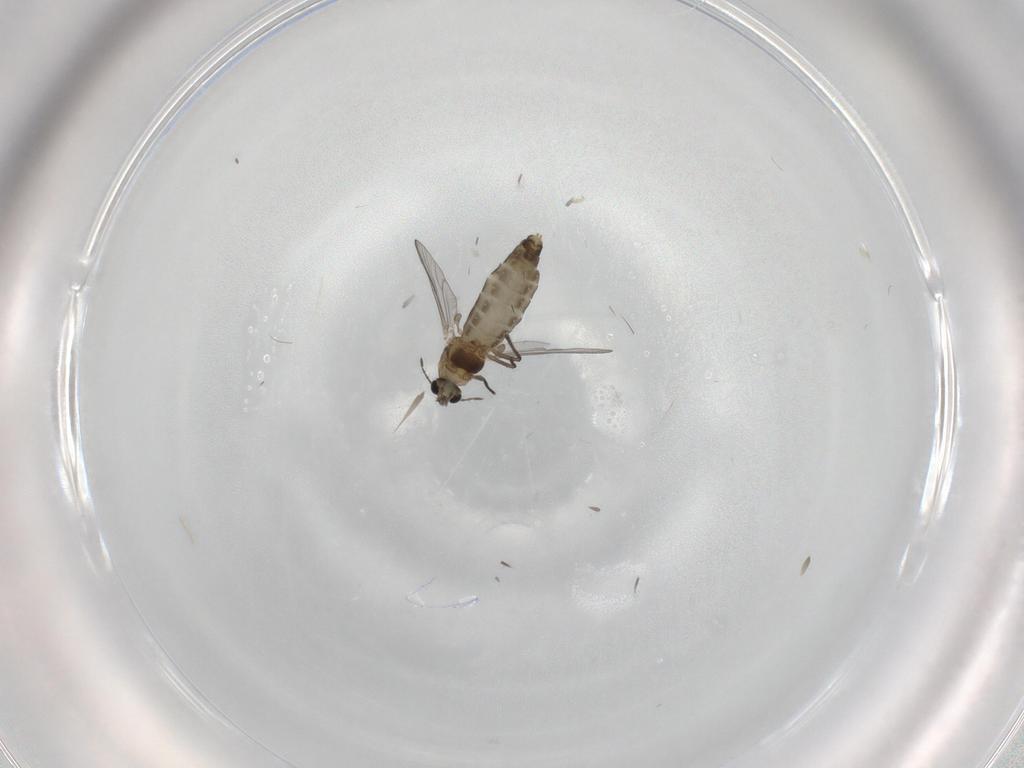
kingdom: Animalia
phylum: Arthropoda
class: Insecta
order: Diptera
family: Chironomidae
